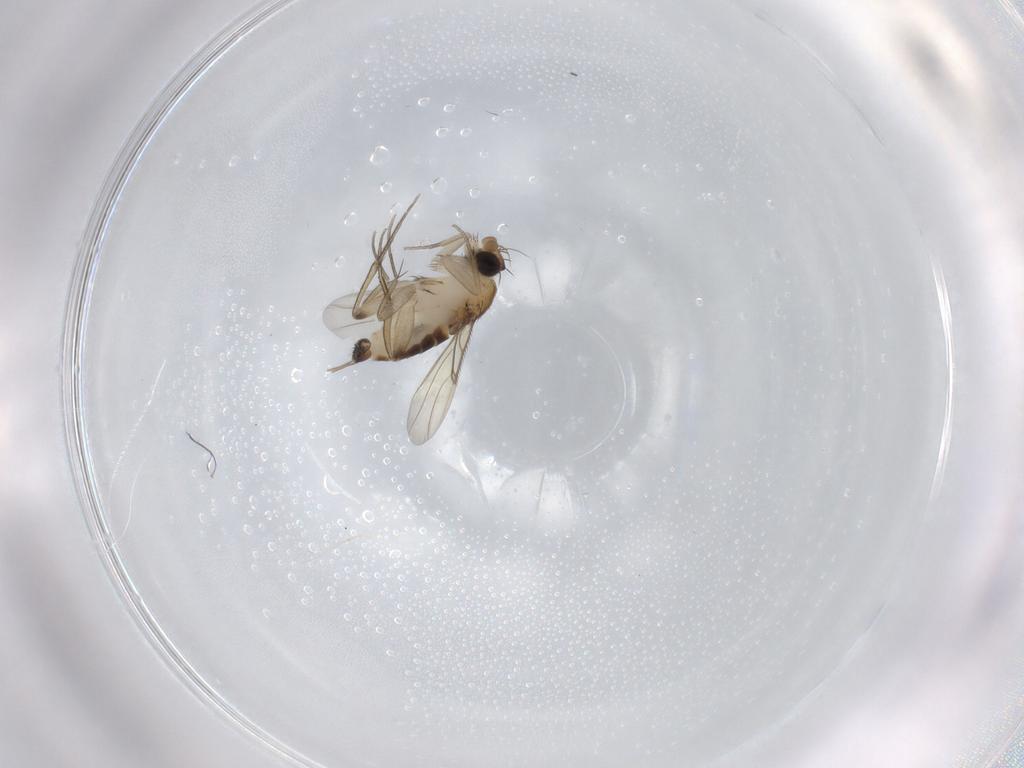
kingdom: Animalia
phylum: Arthropoda
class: Insecta
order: Diptera
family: Phoridae
